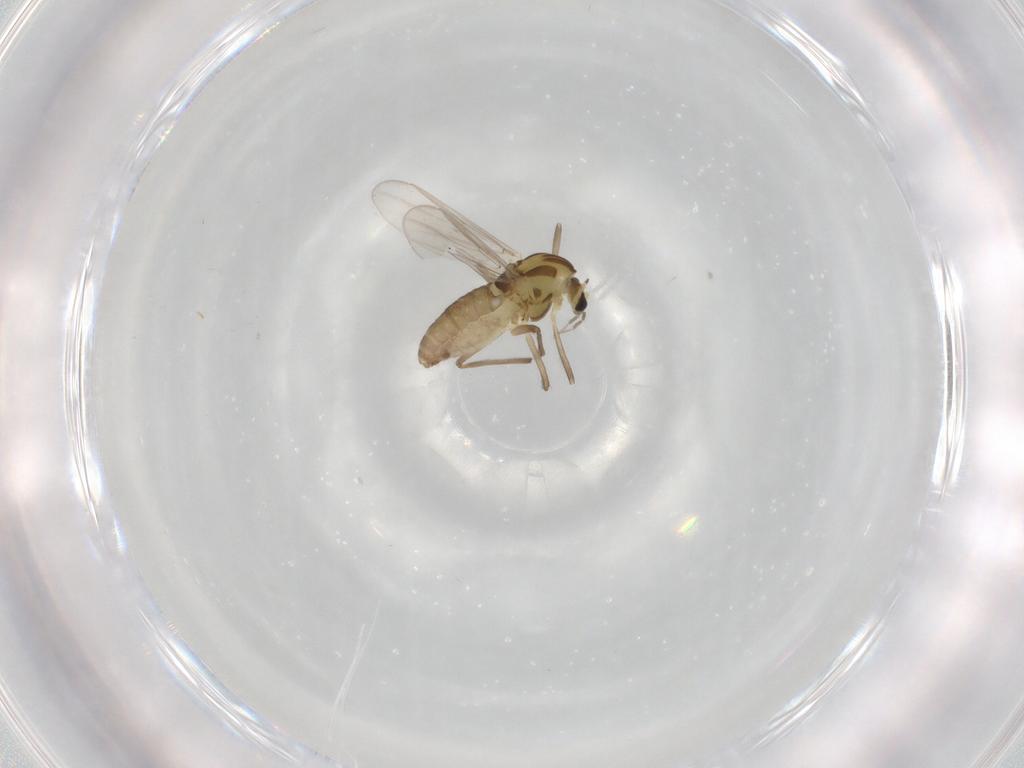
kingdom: Animalia
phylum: Arthropoda
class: Insecta
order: Diptera
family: Chironomidae
